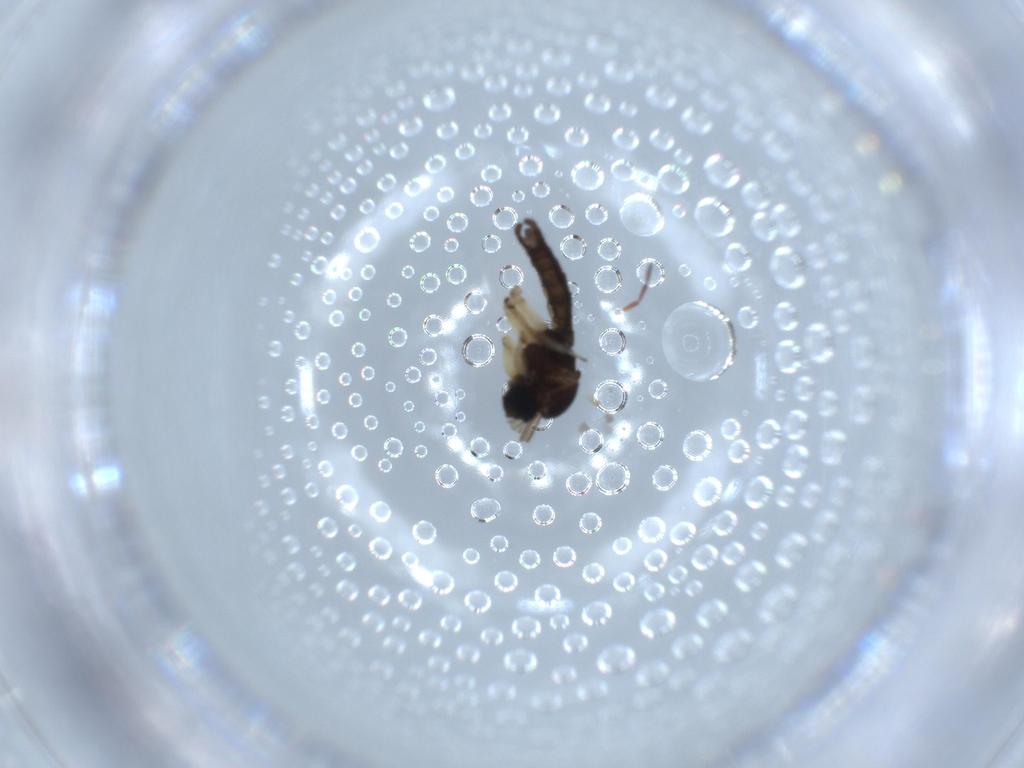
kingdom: Animalia
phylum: Arthropoda
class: Insecta
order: Diptera
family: Sciaridae
